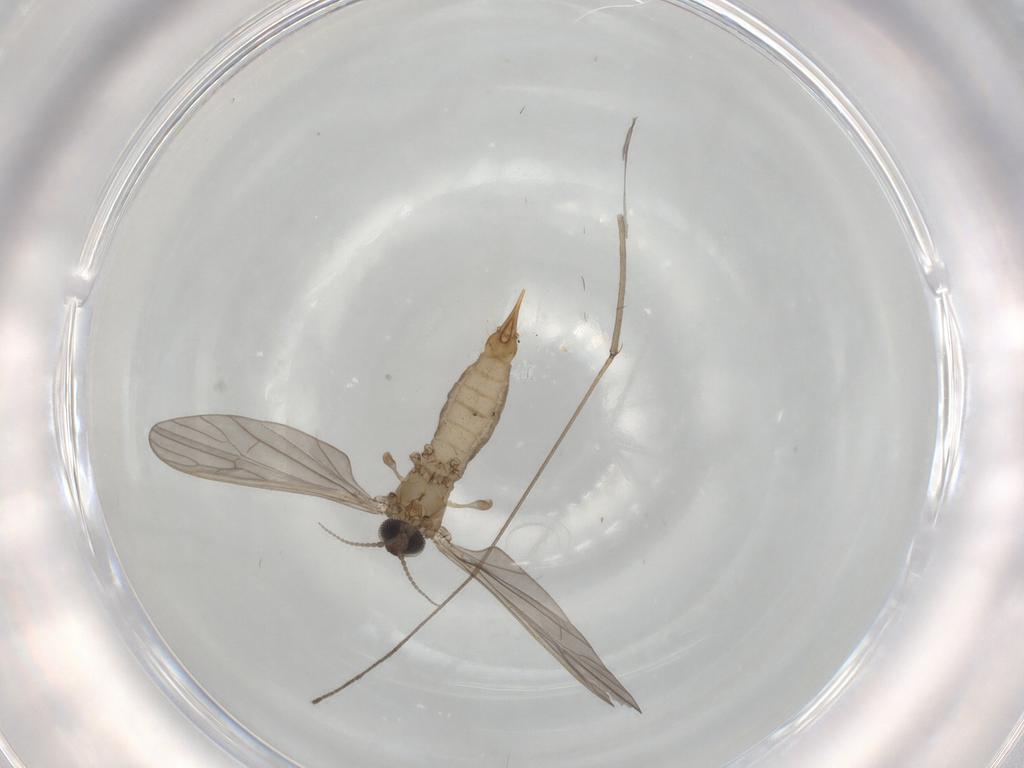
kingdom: Animalia
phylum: Arthropoda
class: Insecta
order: Diptera
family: Limoniidae
